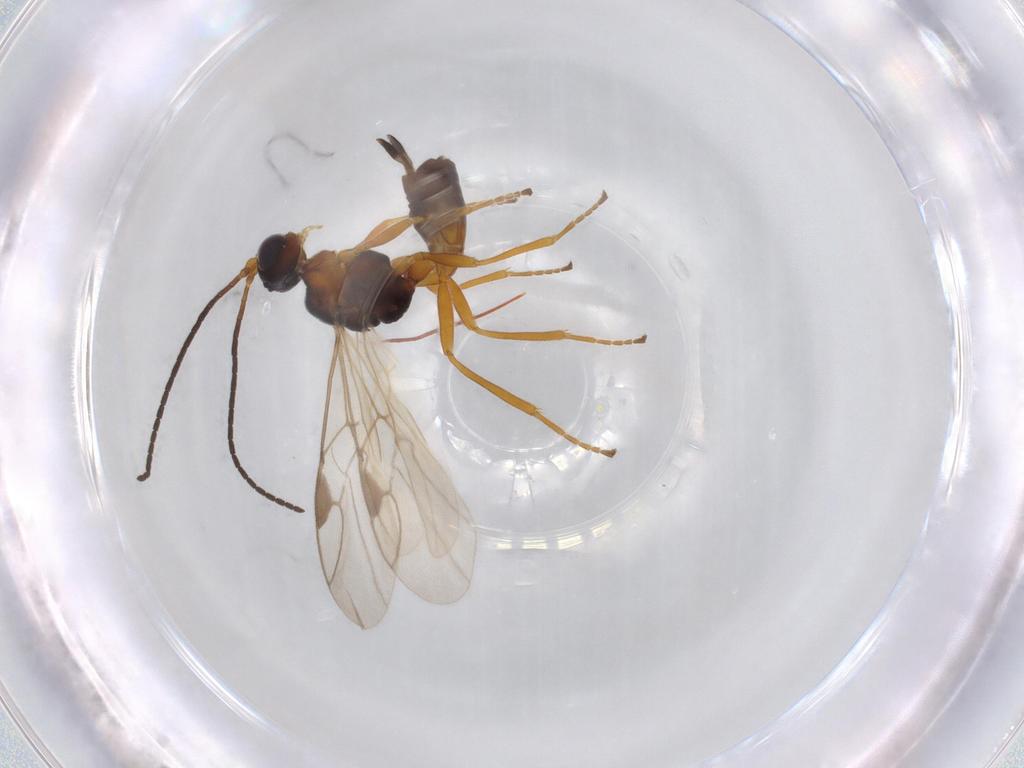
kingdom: Animalia
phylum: Arthropoda
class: Insecta
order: Hymenoptera
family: Braconidae
